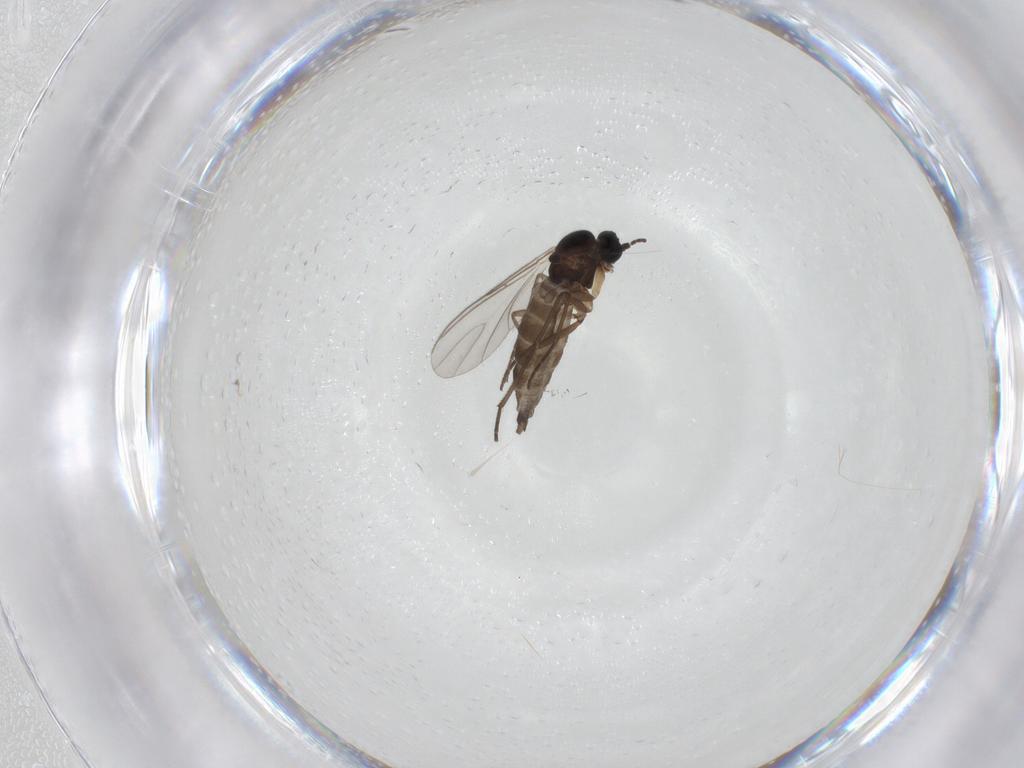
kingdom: Animalia
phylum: Arthropoda
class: Insecta
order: Diptera
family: Sciaridae
